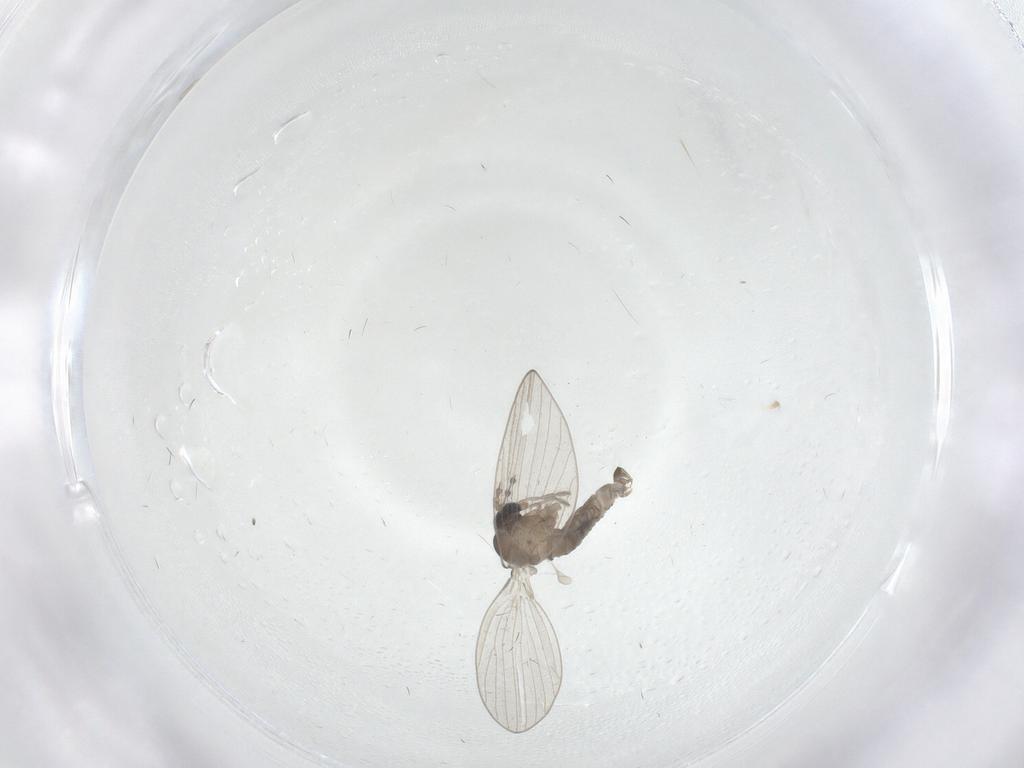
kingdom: Animalia
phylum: Arthropoda
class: Insecta
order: Diptera
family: Psychodidae
